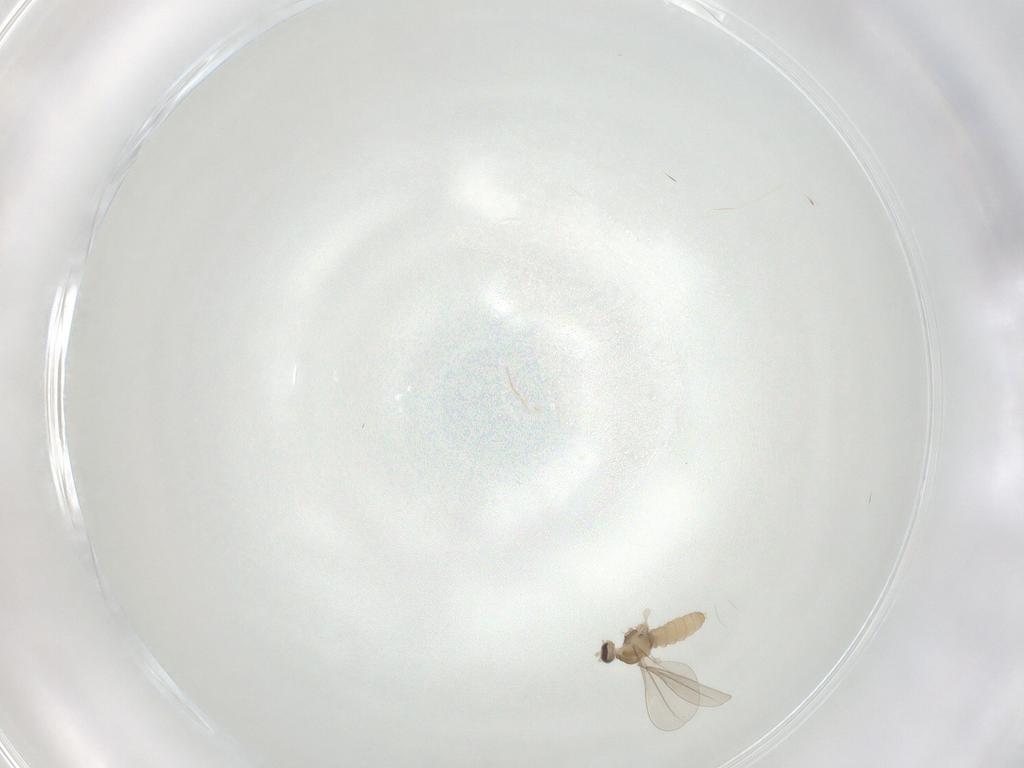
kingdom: Animalia
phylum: Arthropoda
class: Insecta
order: Diptera
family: Cecidomyiidae
